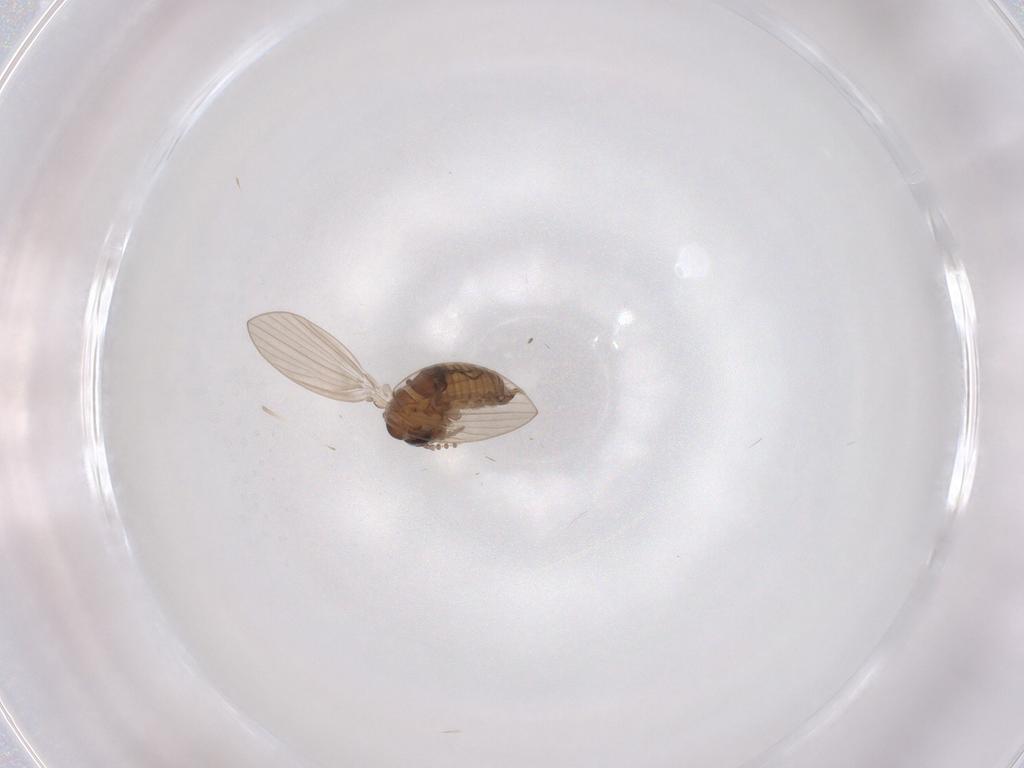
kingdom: Animalia
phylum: Arthropoda
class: Insecta
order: Diptera
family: Psychodidae
